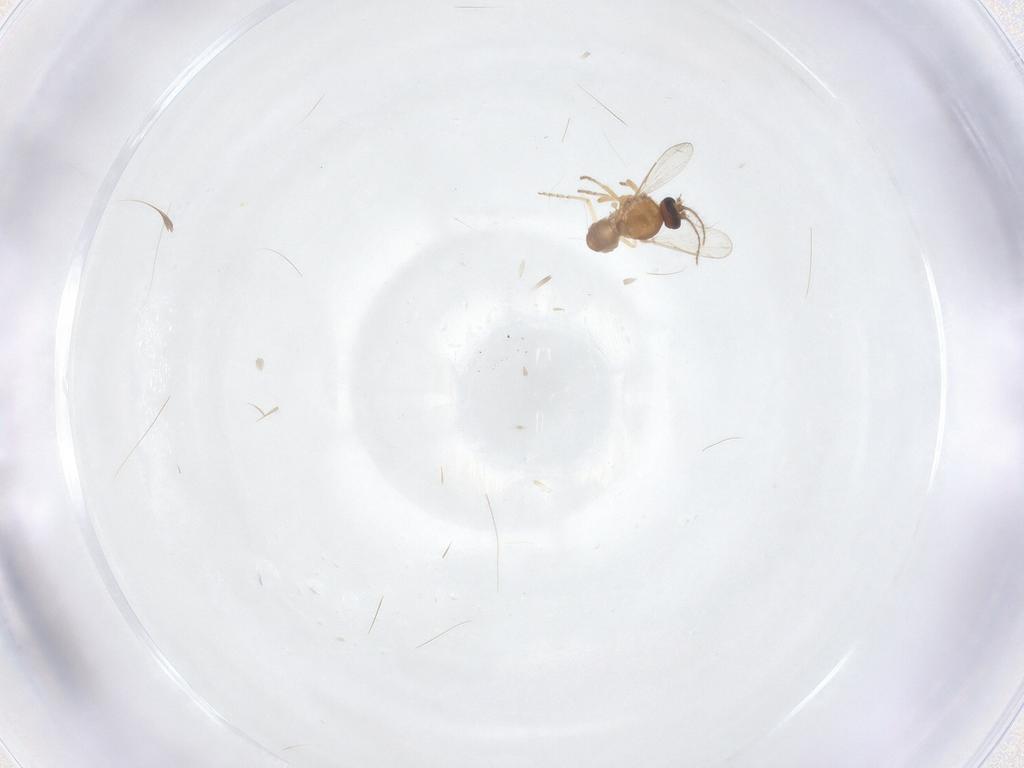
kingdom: Animalia
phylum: Arthropoda
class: Insecta
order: Diptera
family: Ceratopogonidae
